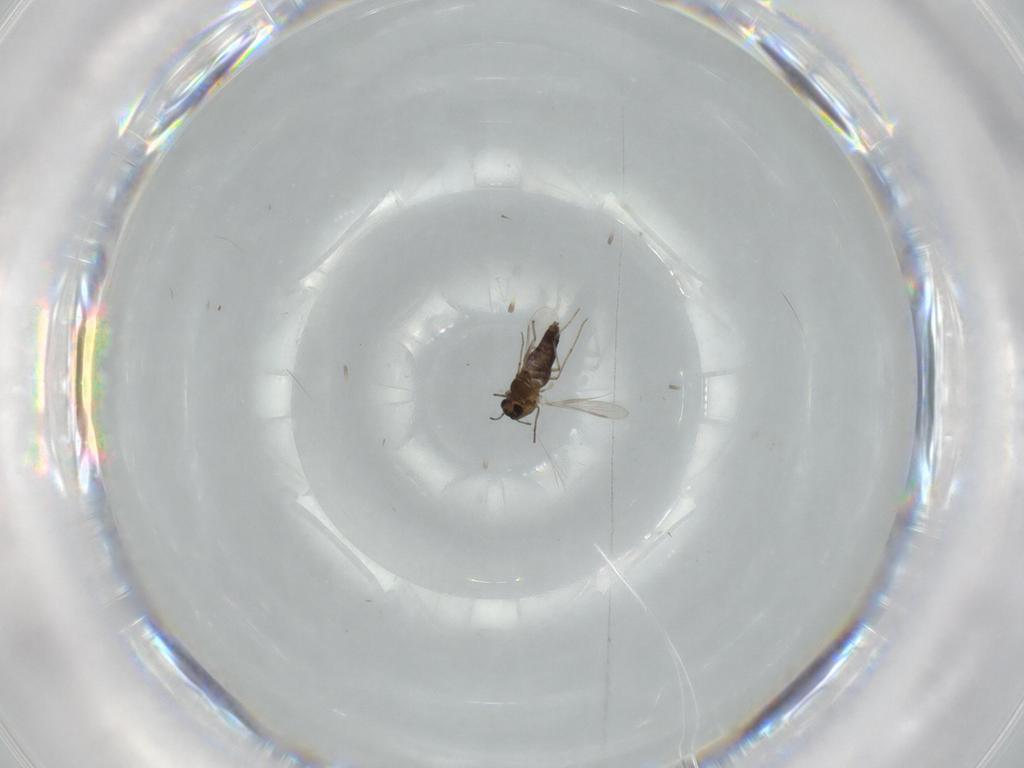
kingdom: Animalia
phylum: Arthropoda
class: Insecta
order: Diptera
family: Chironomidae
